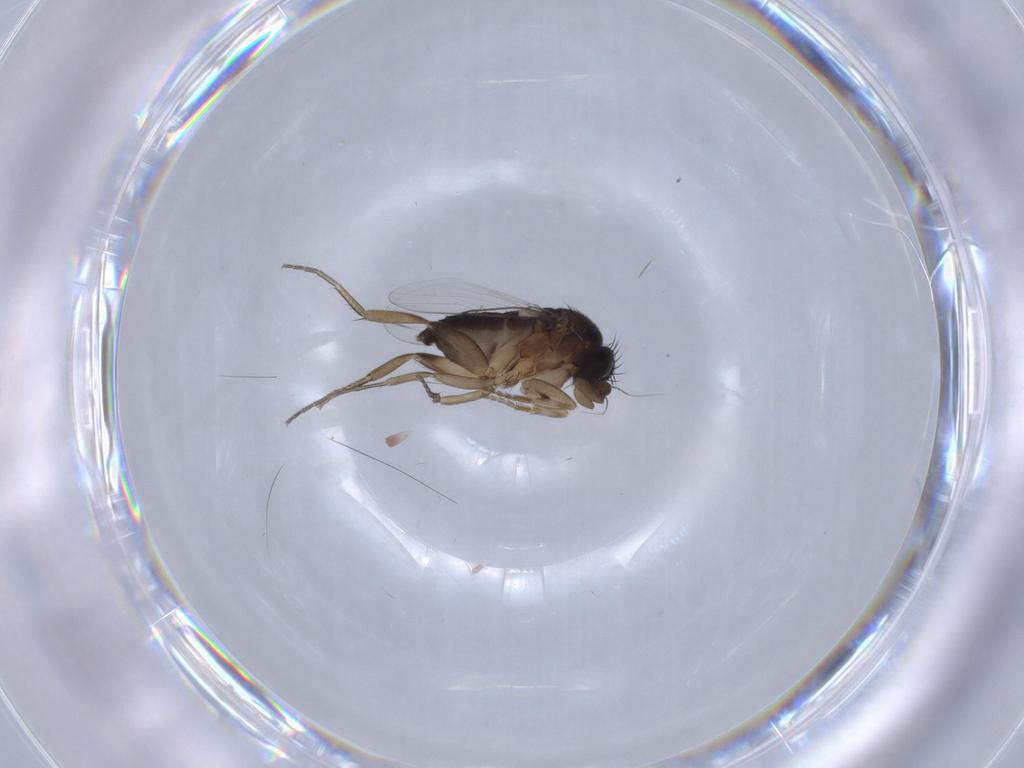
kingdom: Animalia
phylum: Arthropoda
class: Insecta
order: Diptera
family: Phoridae
